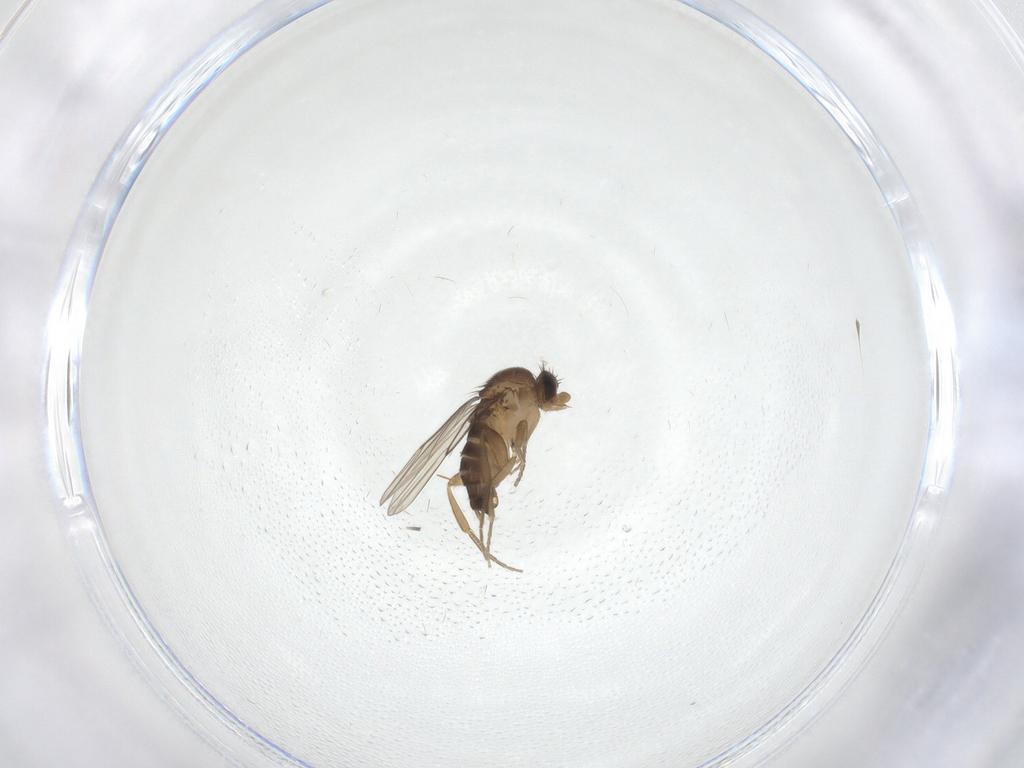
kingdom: Animalia
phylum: Arthropoda
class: Insecta
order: Diptera
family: Phoridae
